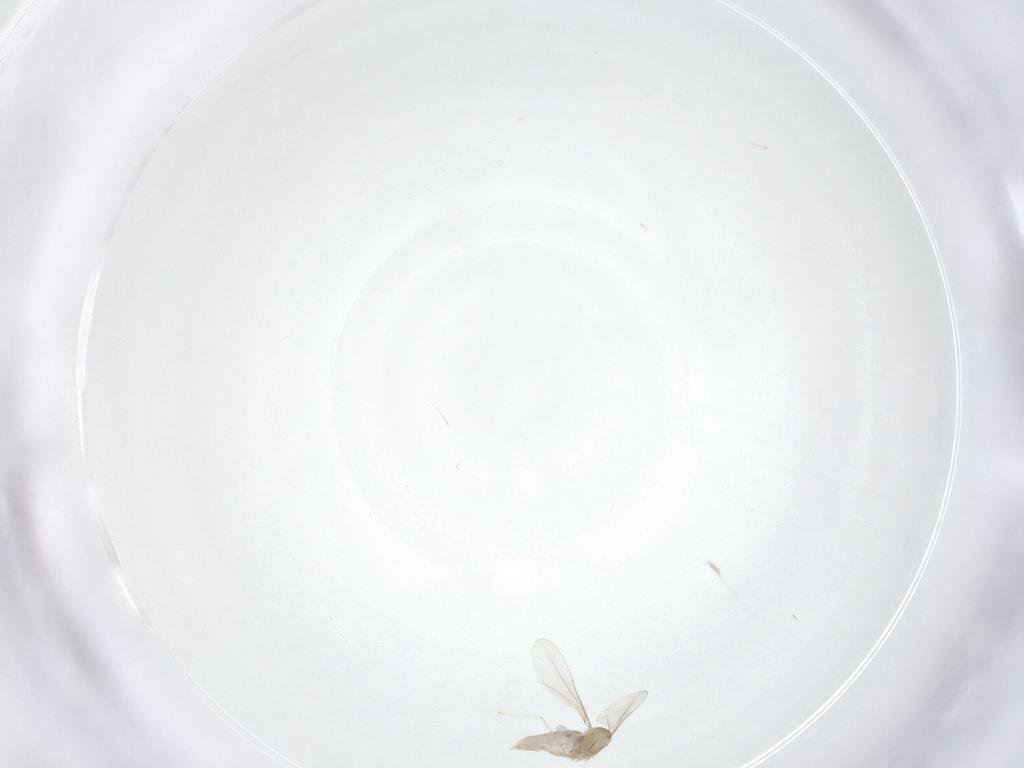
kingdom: Animalia
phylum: Arthropoda
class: Insecta
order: Diptera
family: Cecidomyiidae
